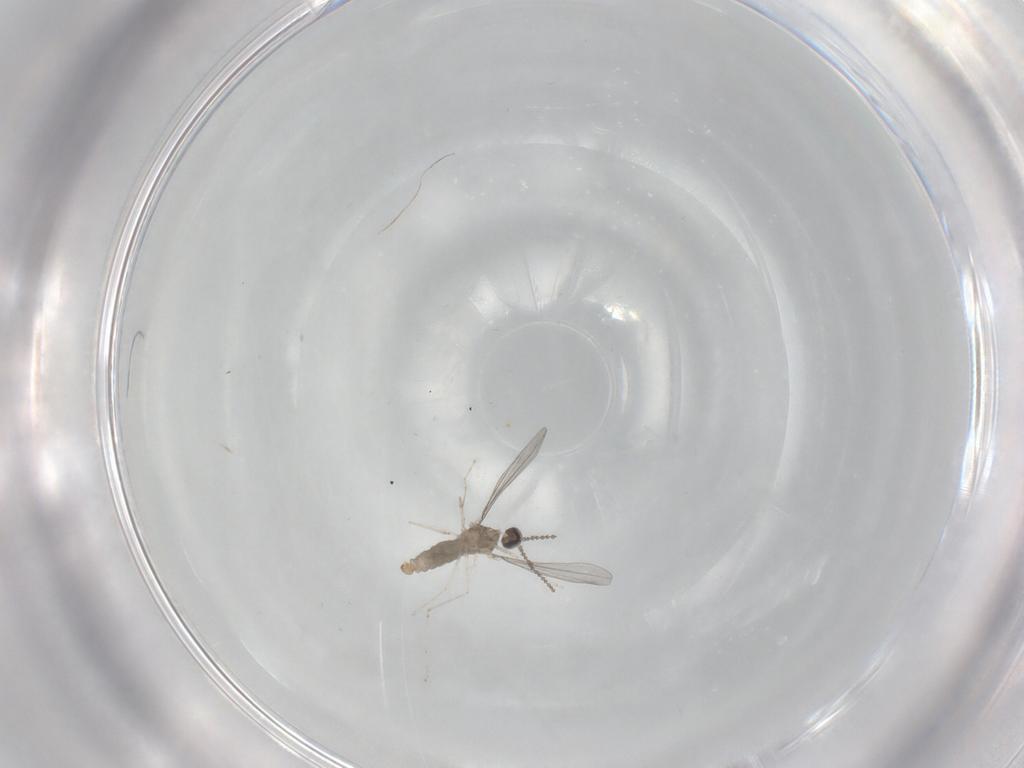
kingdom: Animalia
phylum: Arthropoda
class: Insecta
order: Diptera
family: Cecidomyiidae
